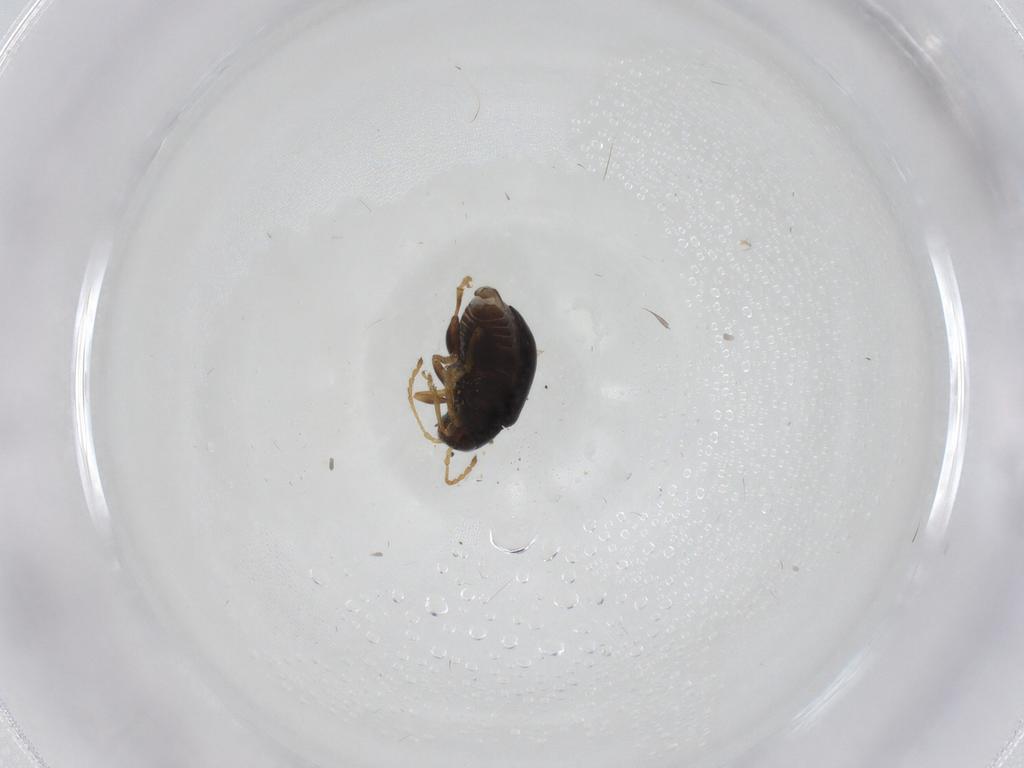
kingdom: Animalia
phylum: Arthropoda
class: Insecta
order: Coleoptera
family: Chrysomelidae
